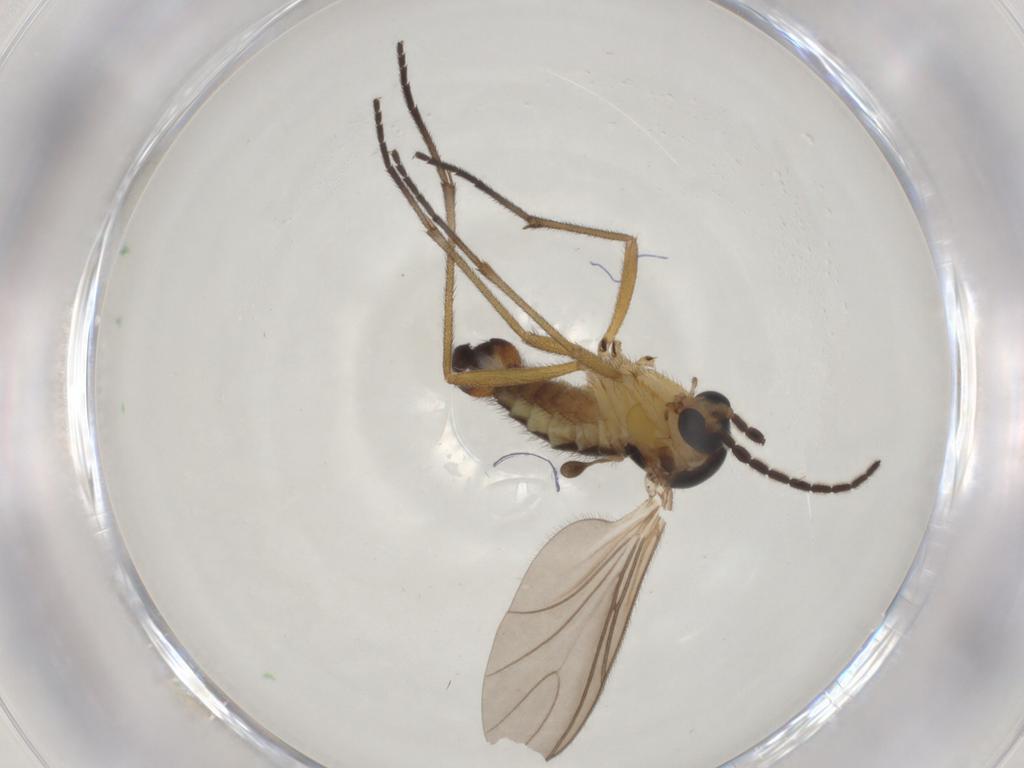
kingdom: Animalia
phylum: Arthropoda
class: Insecta
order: Diptera
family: Sciaridae
